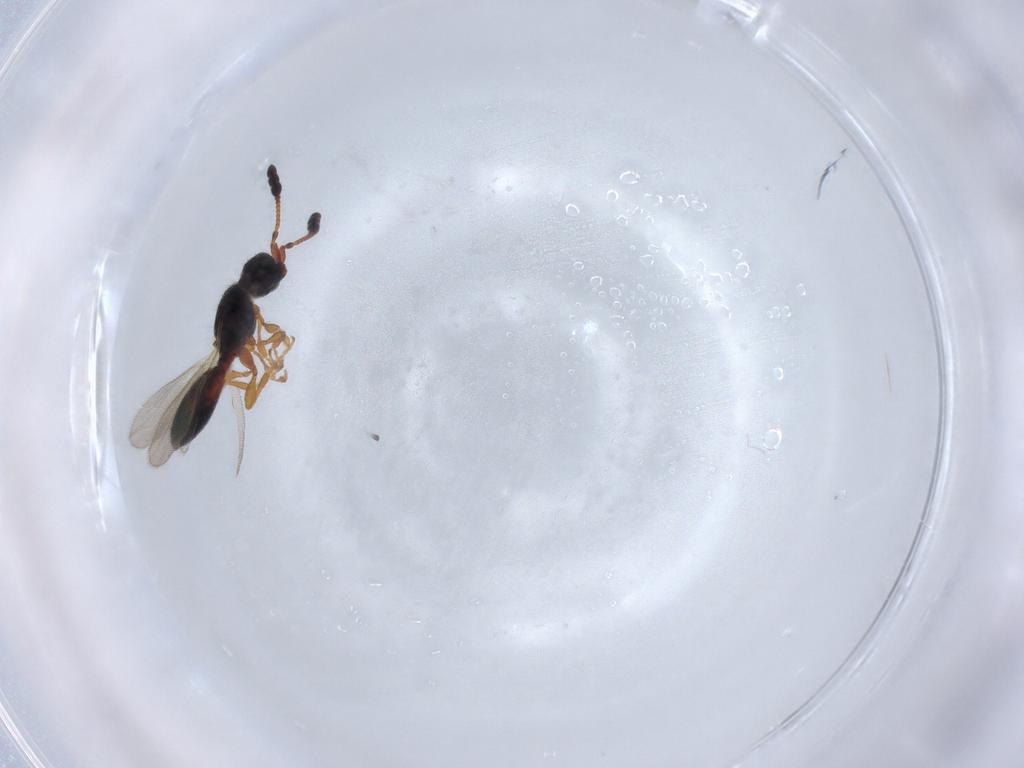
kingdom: Animalia
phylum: Arthropoda
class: Insecta
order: Hymenoptera
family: Diapriidae
